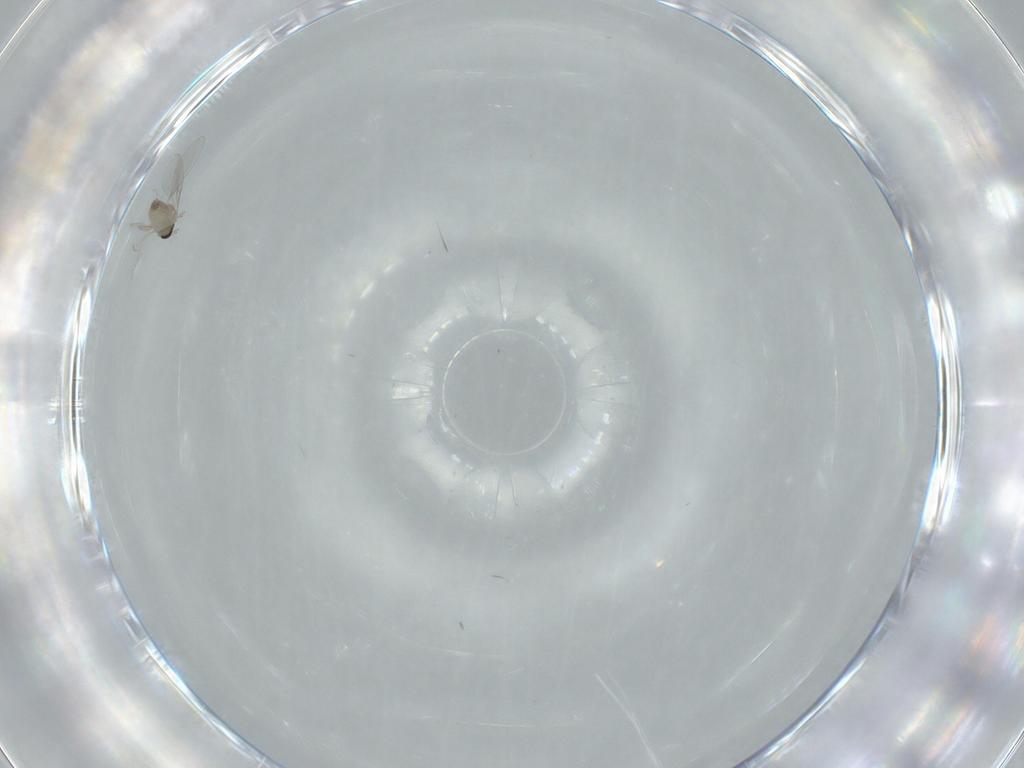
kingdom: Animalia
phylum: Arthropoda
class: Insecta
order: Diptera
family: Cecidomyiidae
